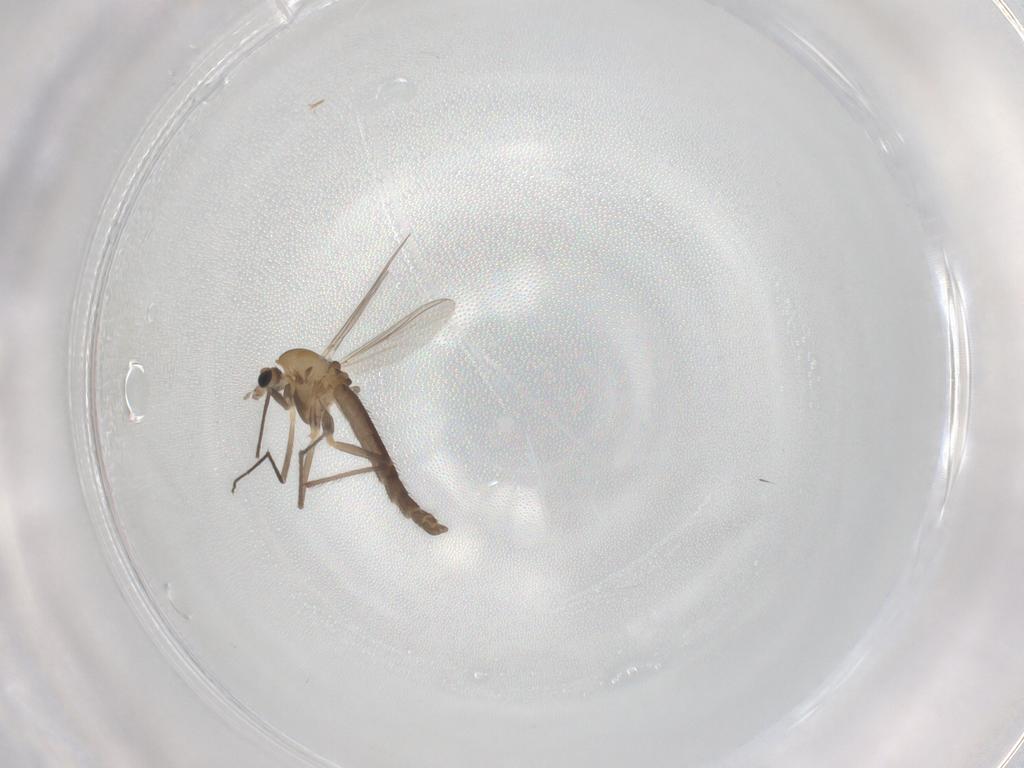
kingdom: Animalia
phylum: Arthropoda
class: Insecta
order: Diptera
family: Chironomidae
